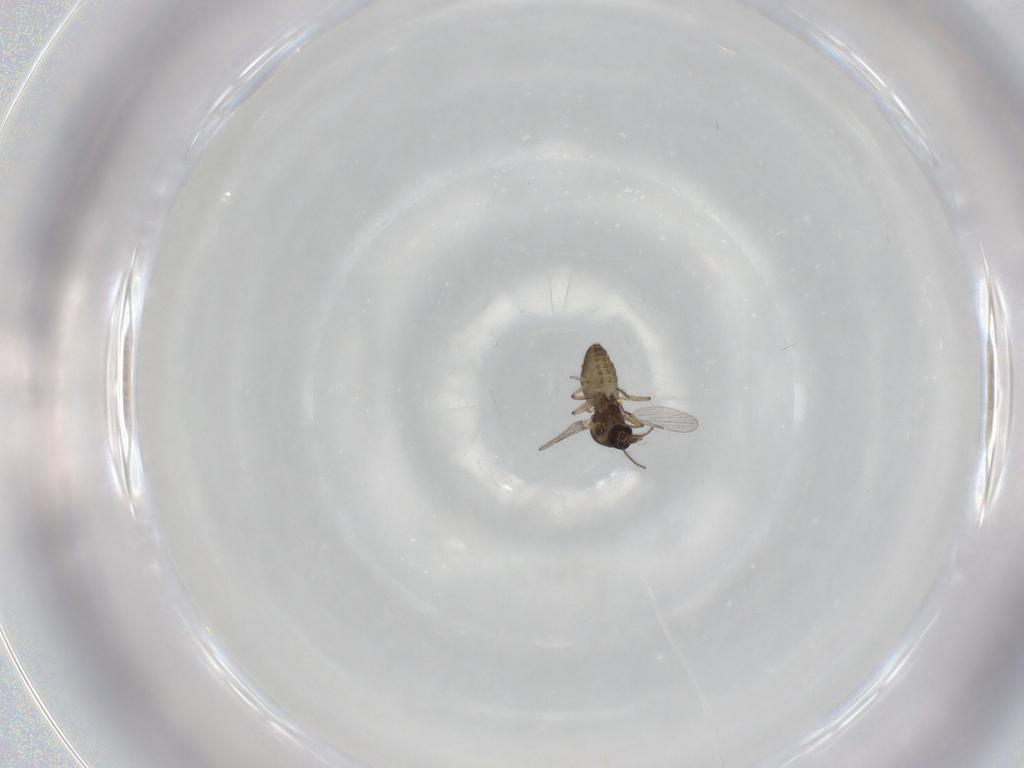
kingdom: Animalia
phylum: Arthropoda
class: Insecta
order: Diptera
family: Ceratopogonidae
